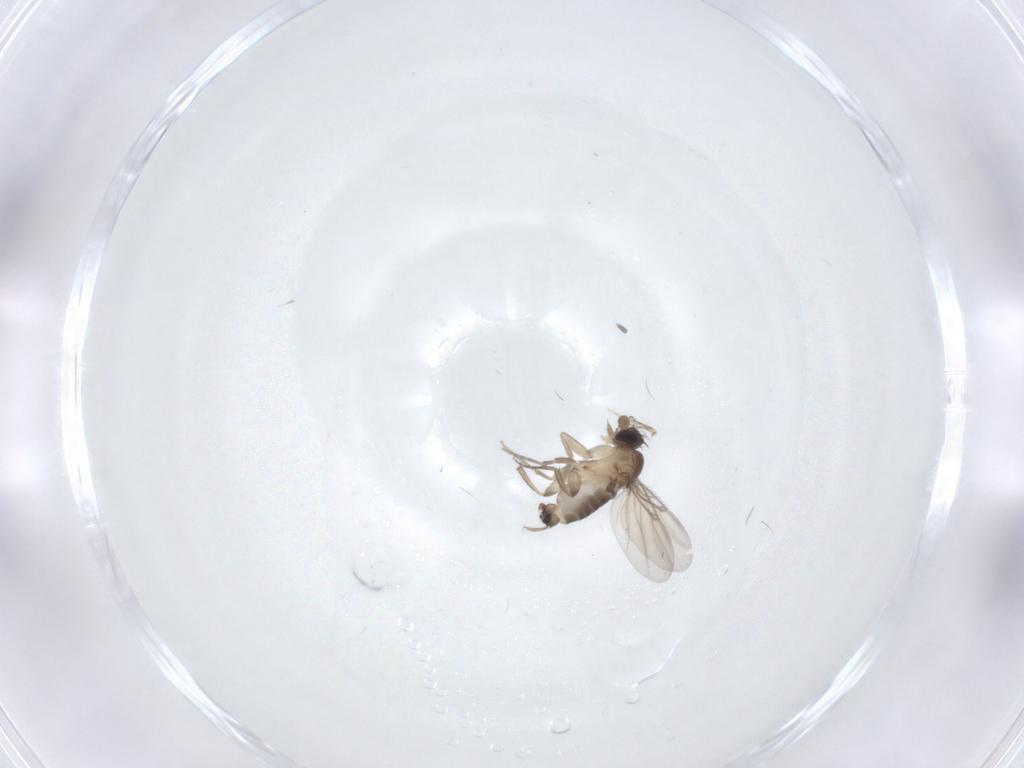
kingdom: Animalia
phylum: Arthropoda
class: Insecta
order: Diptera
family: Phoridae
